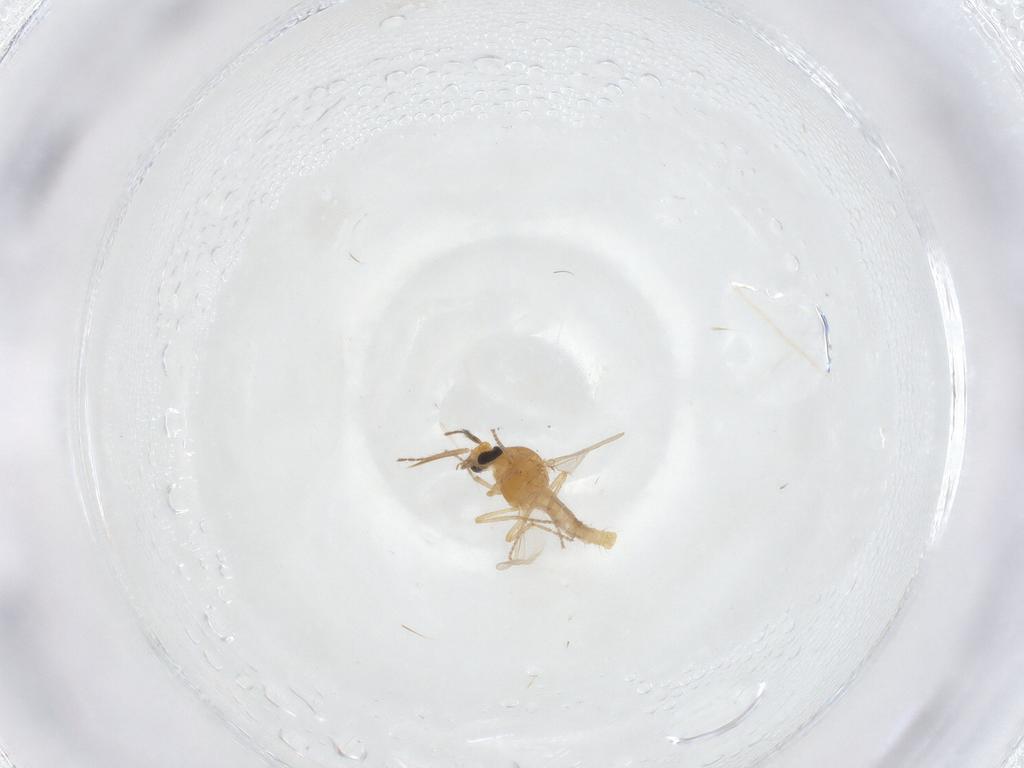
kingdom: Animalia
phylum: Arthropoda
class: Insecta
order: Diptera
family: Ceratopogonidae
